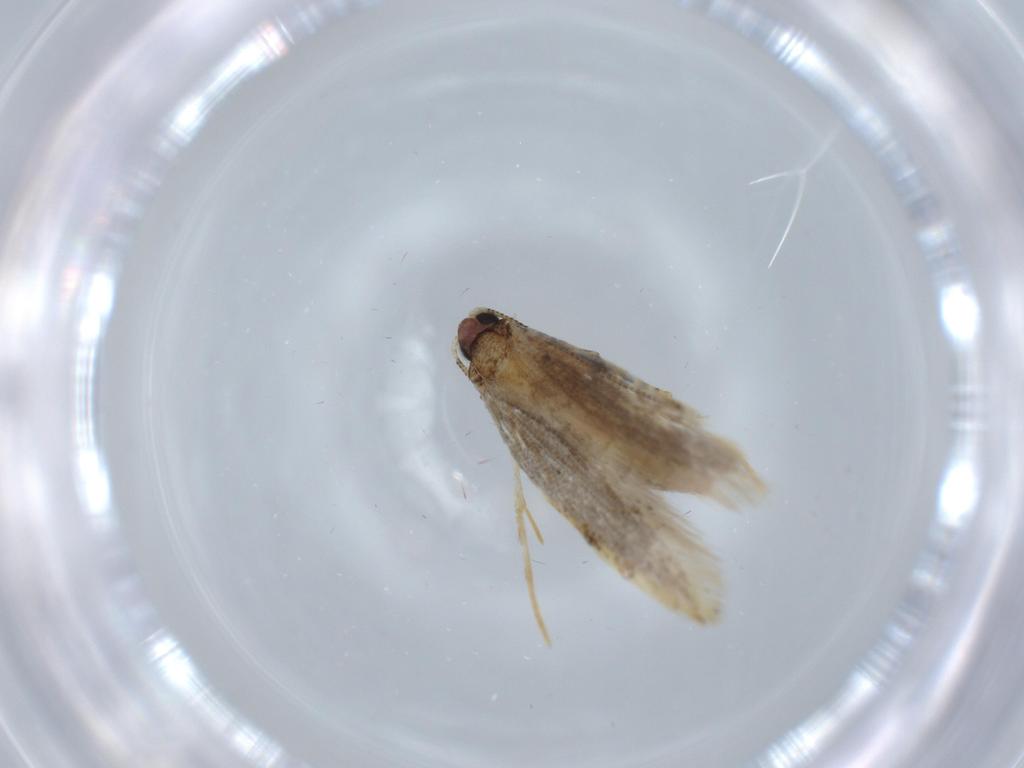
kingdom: Animalia
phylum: Arthropoda
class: Insecta
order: Lepidoptera
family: Tineidae
